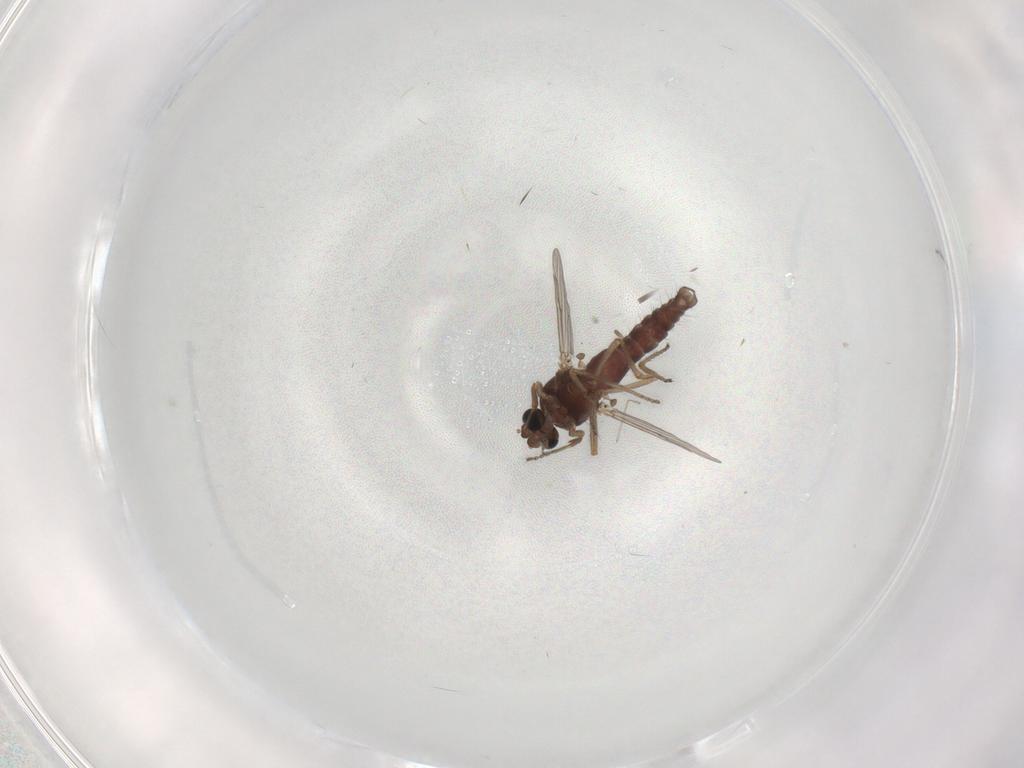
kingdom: Animalia
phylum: Arthropoda
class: Insecta
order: Diptera
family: Ceratopogonidae
